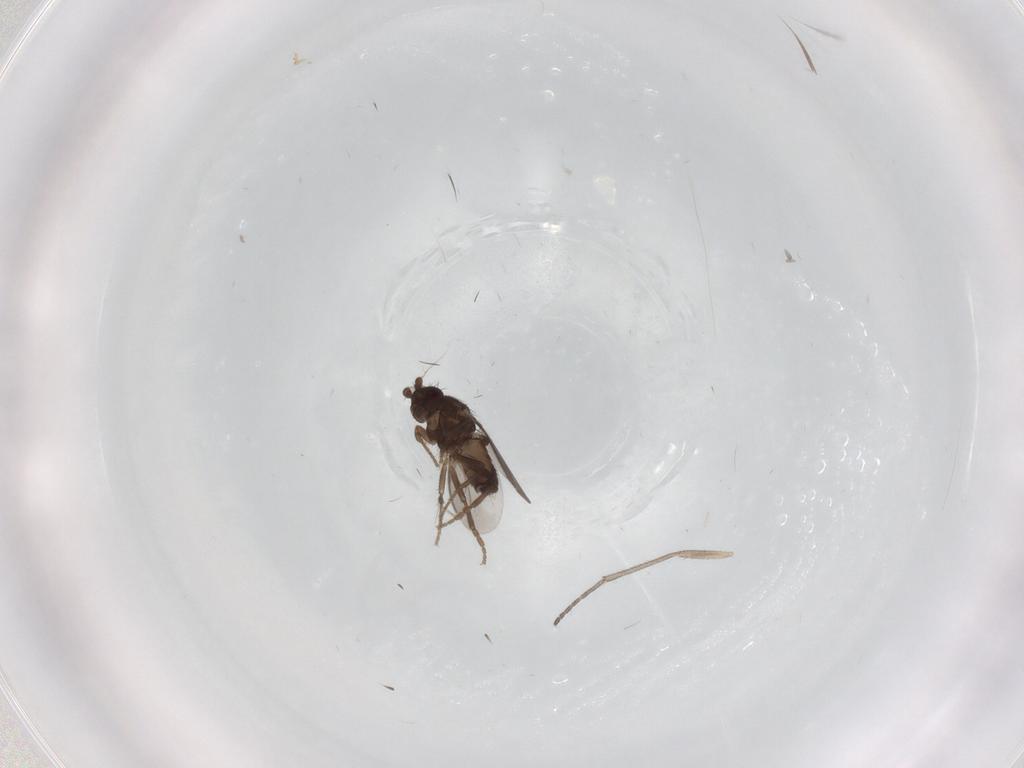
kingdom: Animalia
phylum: Arthropoda
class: Insecta
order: Diptera
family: Sciaridae
